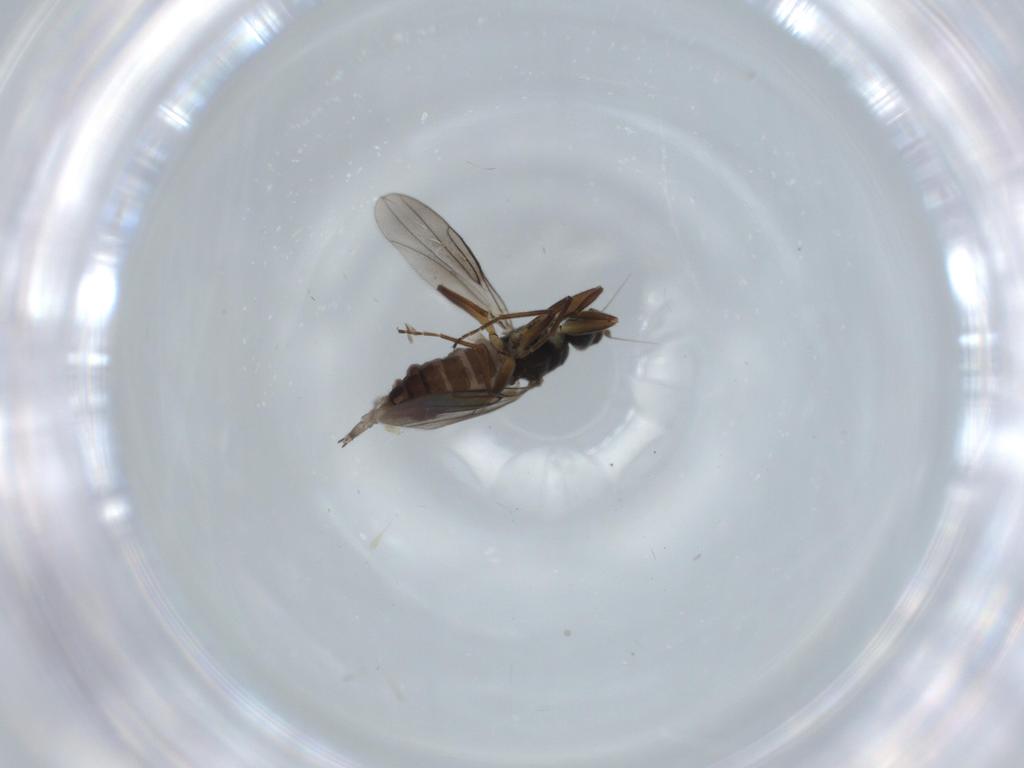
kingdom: Animalia
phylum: Arthropoda
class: Insecta
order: Diptera
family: Hybotidae
